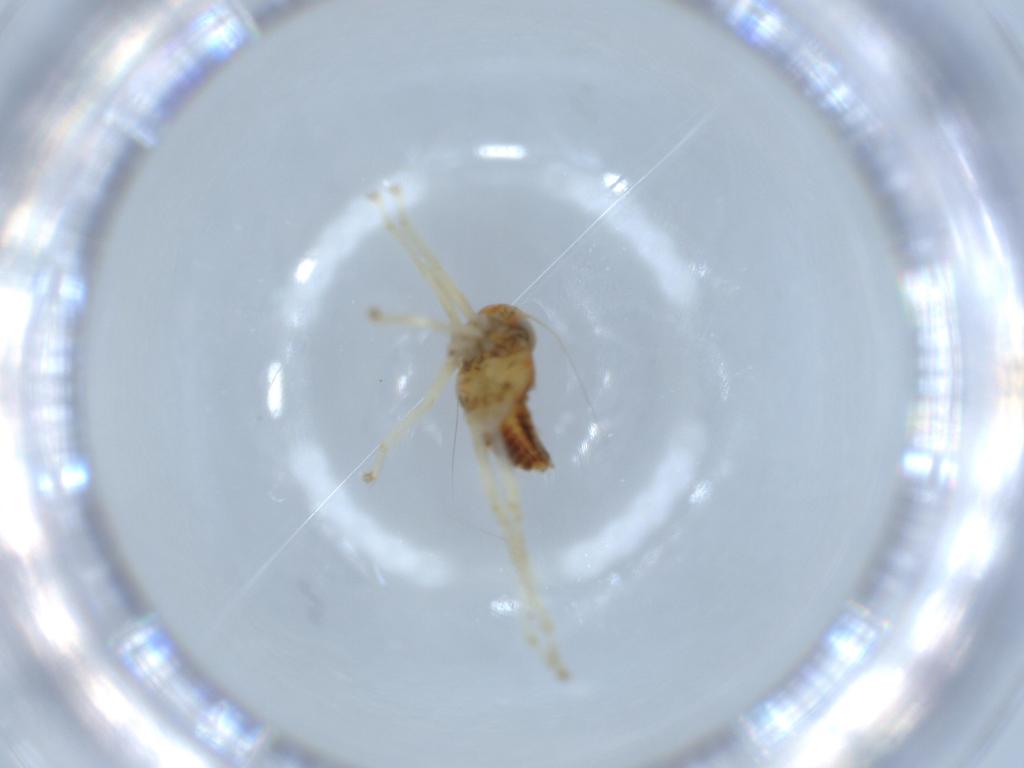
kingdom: Animalia
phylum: Arthropoda
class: Insecta
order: Hemiptera
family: Cicadellidae
